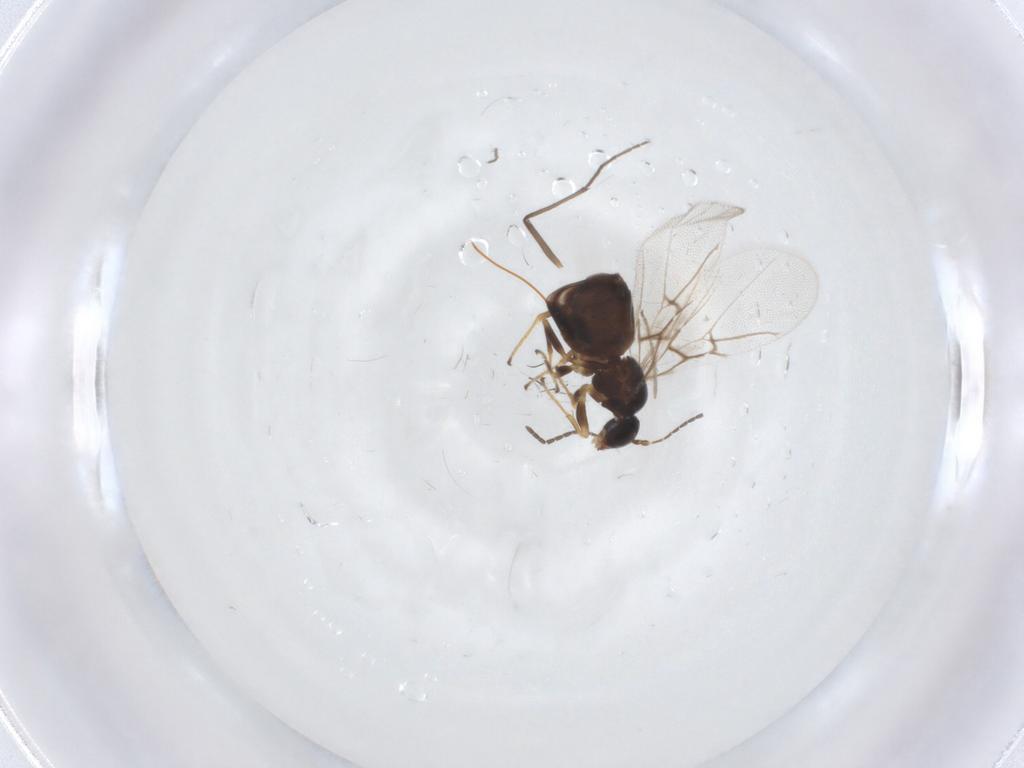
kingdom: Animalia
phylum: Arthropoda
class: Insecta
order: Hymenoptera
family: Cynipidae
